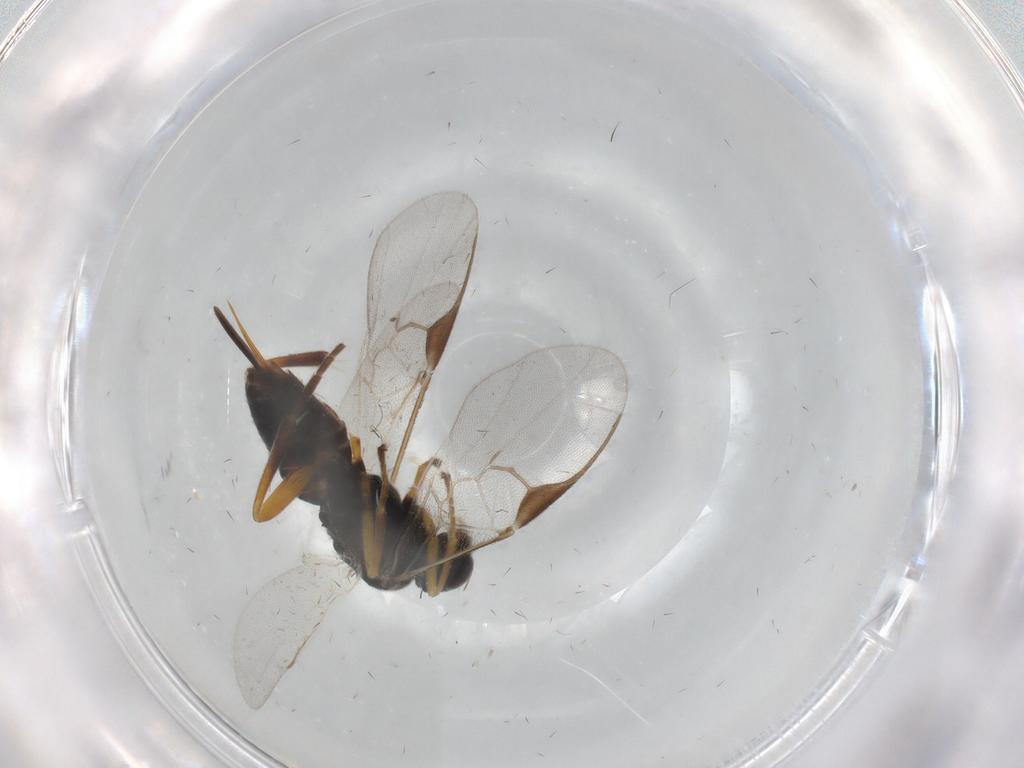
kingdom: Animalia
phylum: Arthropoda
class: Insecta
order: Hymenoptera
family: Braconidae
